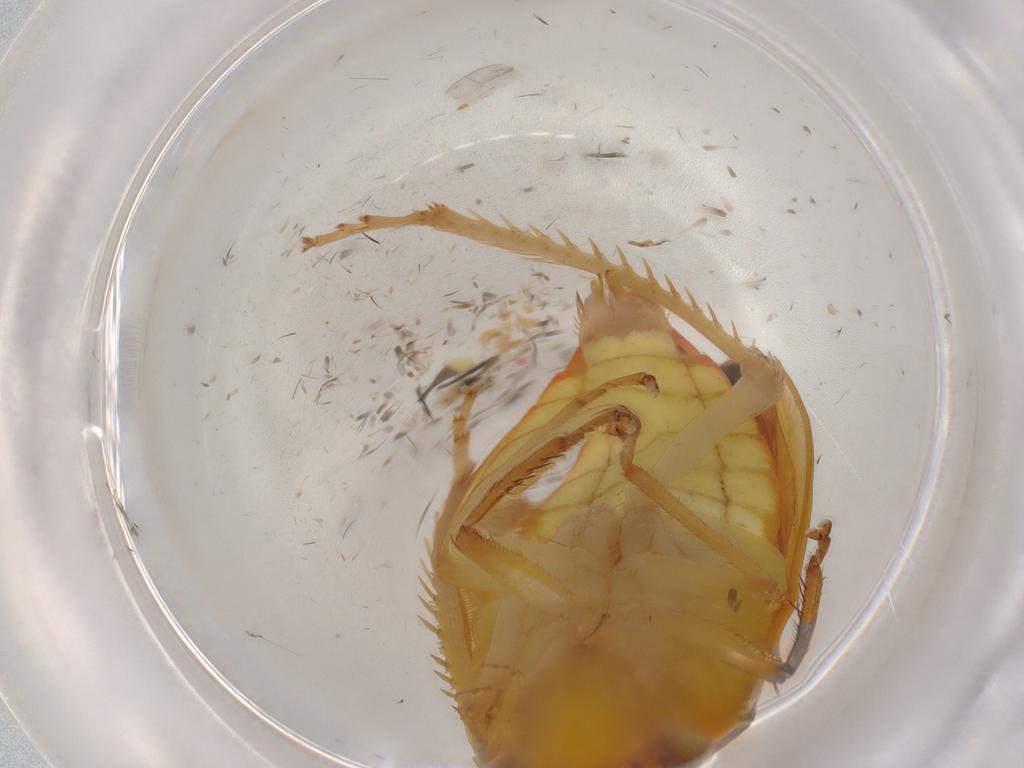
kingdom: Animalia
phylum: Arthropoda
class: Insecta
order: Hemiptera
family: Cicadellidae
